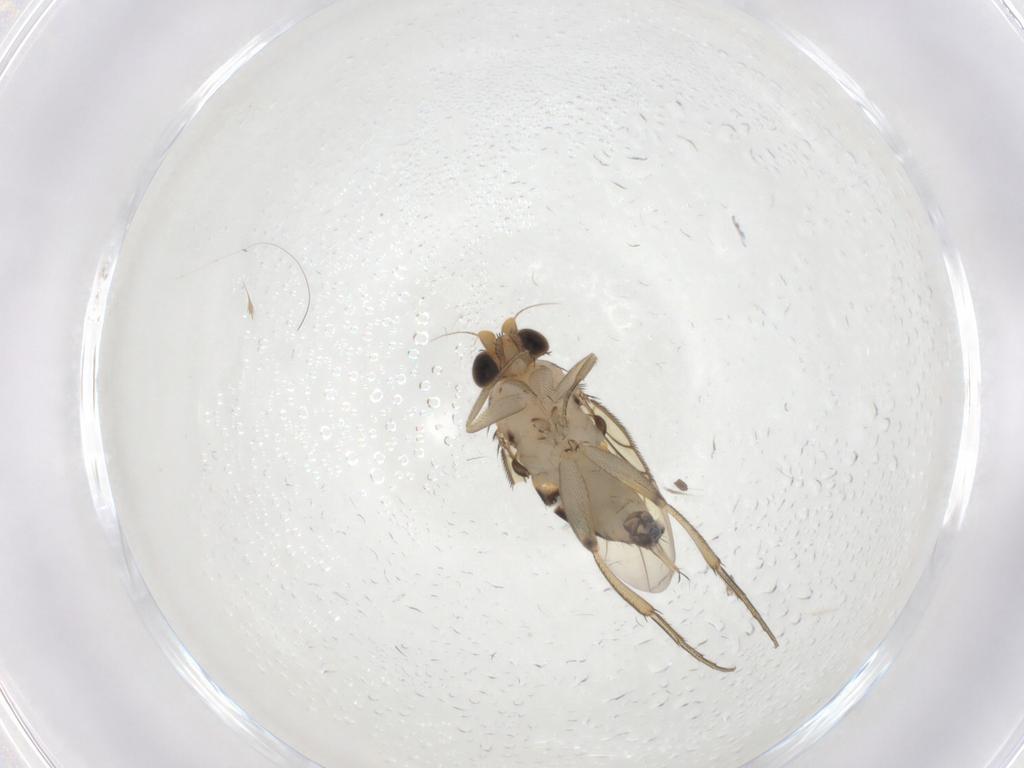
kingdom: Animalia
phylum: Arthropoda
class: Insecta
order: Diptera
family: Phoridae
